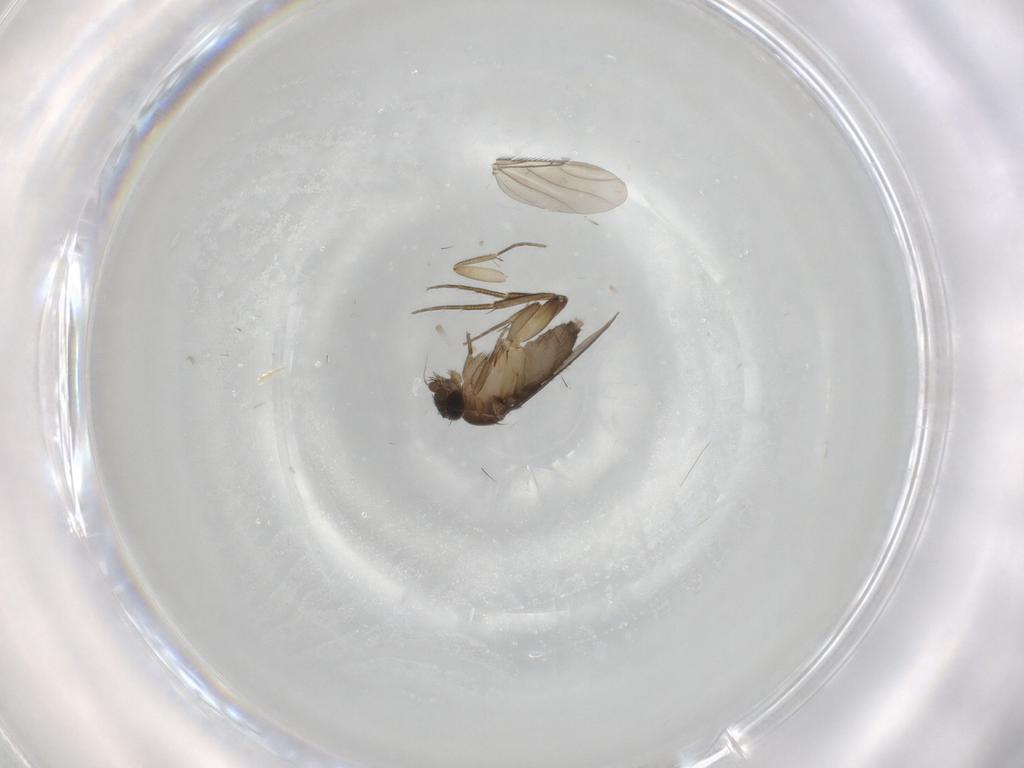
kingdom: Animalia
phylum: Arthropoda
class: Insecta
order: Diptera
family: Phoridae
